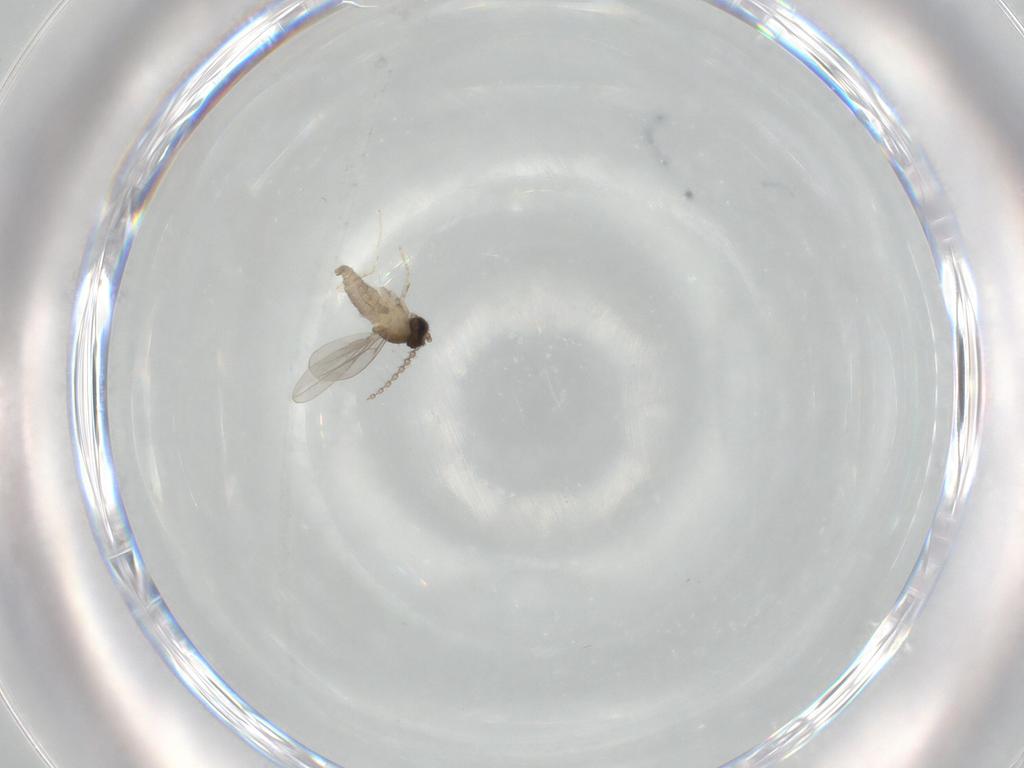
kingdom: Animalia
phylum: Arthropoda
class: Insecta
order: Diptera
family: Cecidomyiidae
